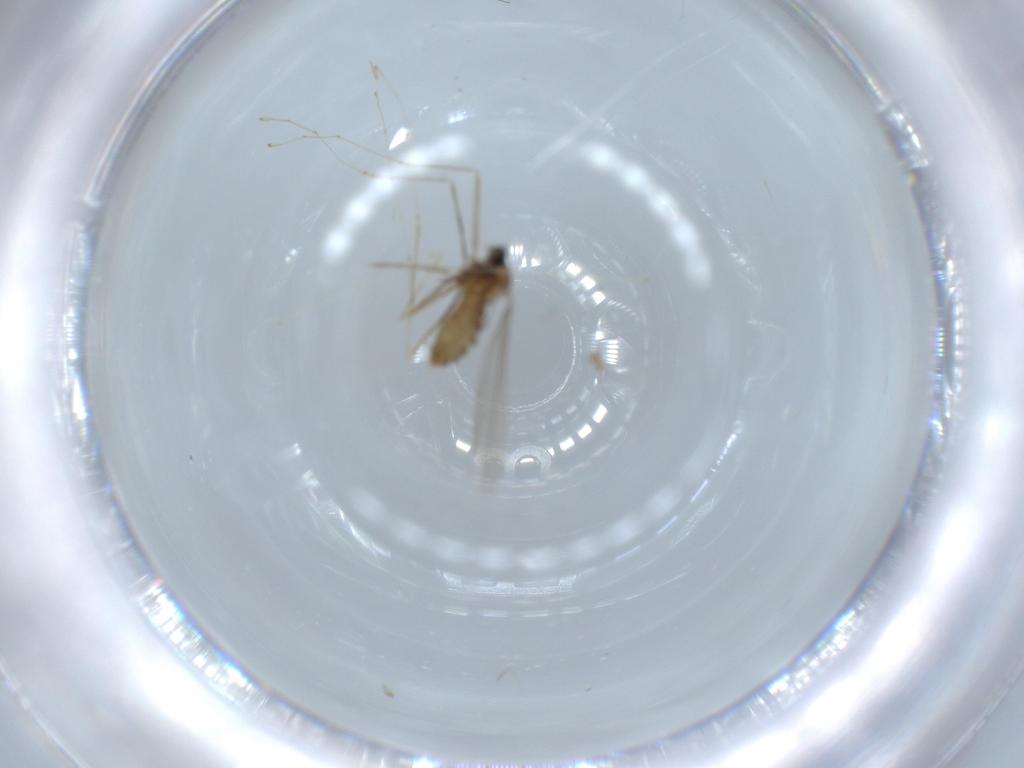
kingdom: Animalia
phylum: Arthropoda
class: Insecta
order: Diptera
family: Cecidomyiidae
